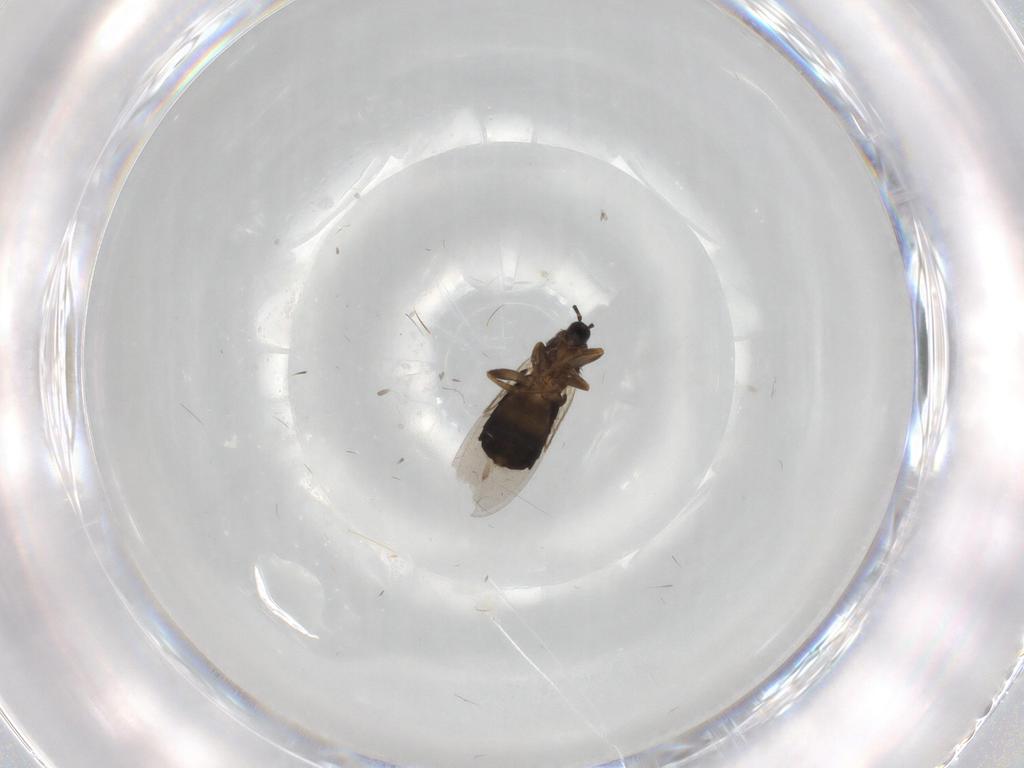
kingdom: Animalia
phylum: Arthropoda
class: Insecta
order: Diptera
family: Scatopsidae
